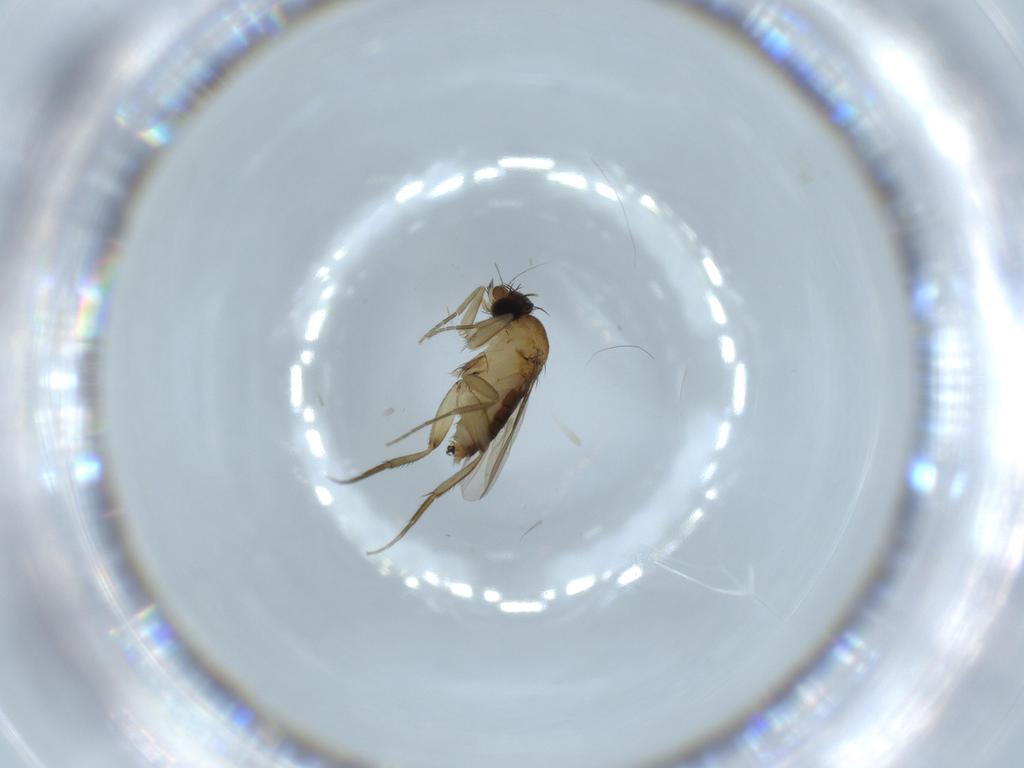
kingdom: Animalia
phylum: Arthropoda
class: Insecta
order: Diptera
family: Phoridae
